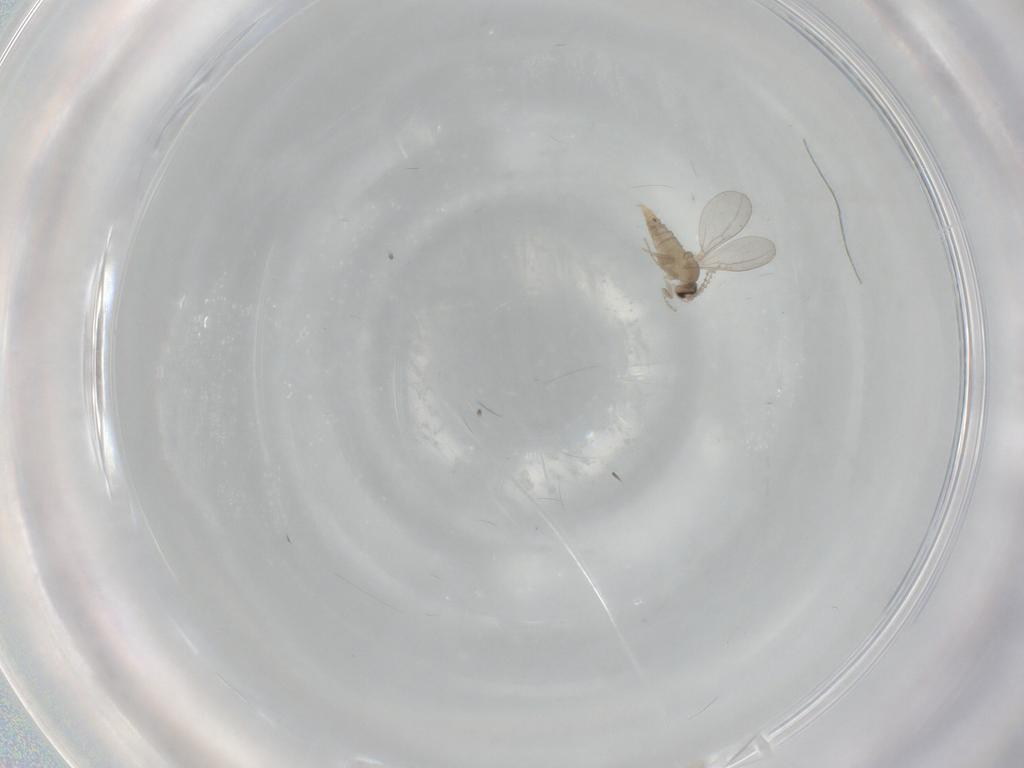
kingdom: Animalia
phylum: Arthropoda
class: Insecta
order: Diptera
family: Cecidomyiidae
